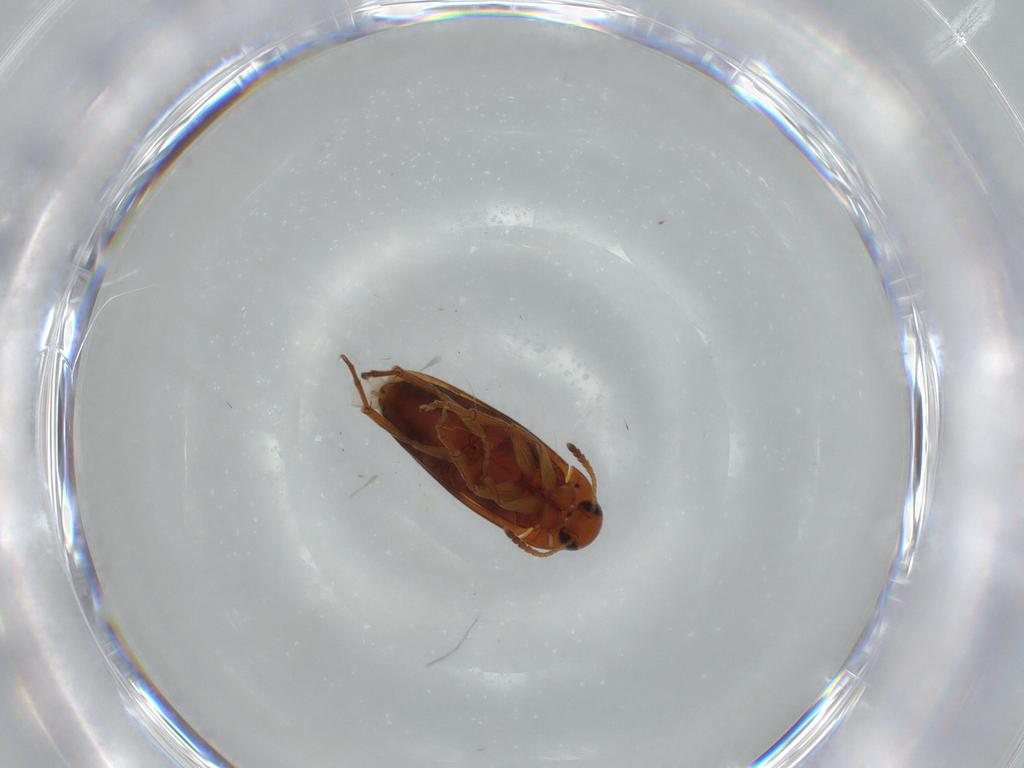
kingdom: Animalia
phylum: Arthropoda
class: Insecta
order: Coleoptera
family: Scraptiidae
